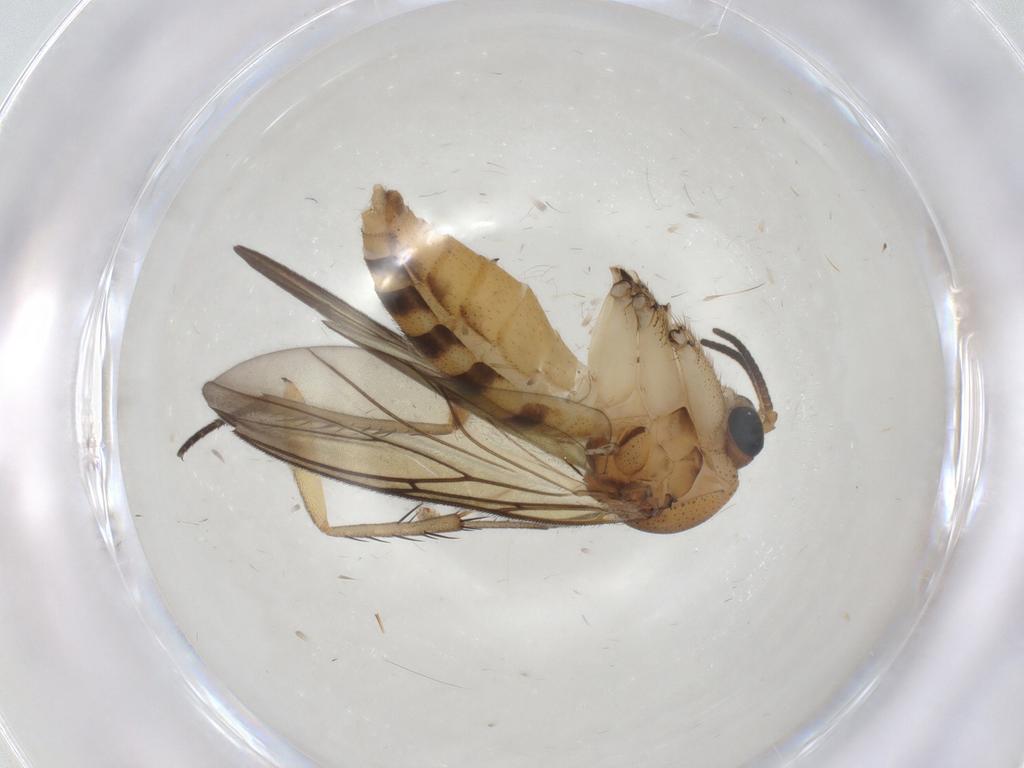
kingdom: Animalia
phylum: Arthropoda
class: Insecta
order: Diptera
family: Mycetophilidae
